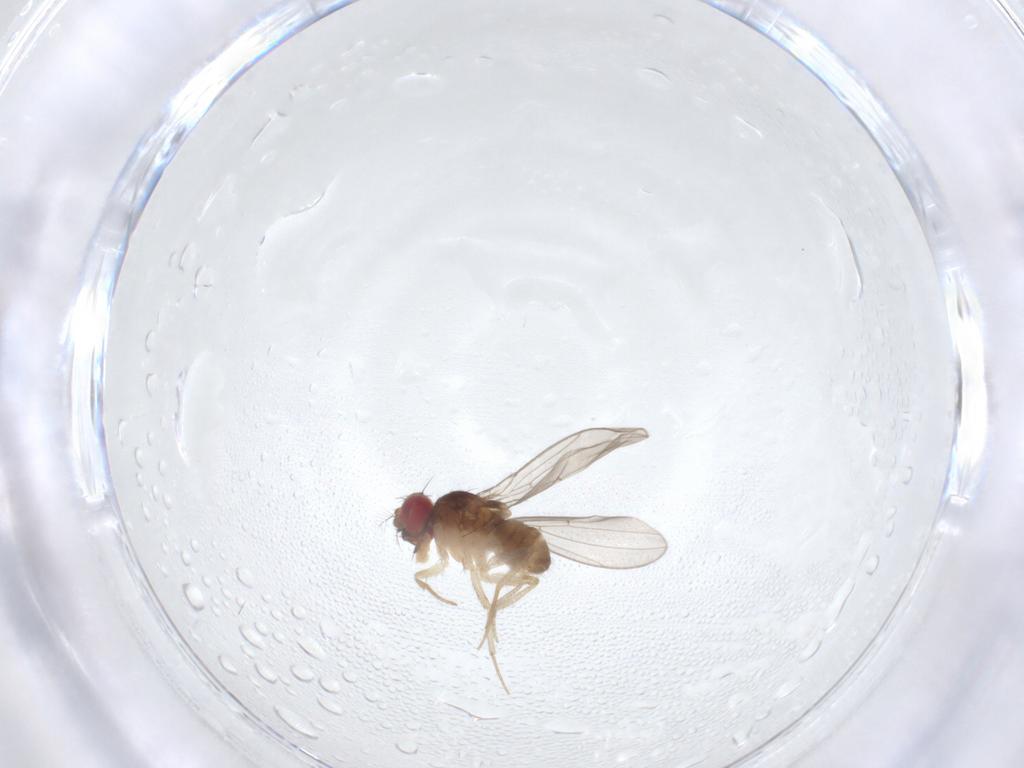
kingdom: Animalia
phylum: Arthropoda
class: Insecta
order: Diptera
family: Drosophilidae
